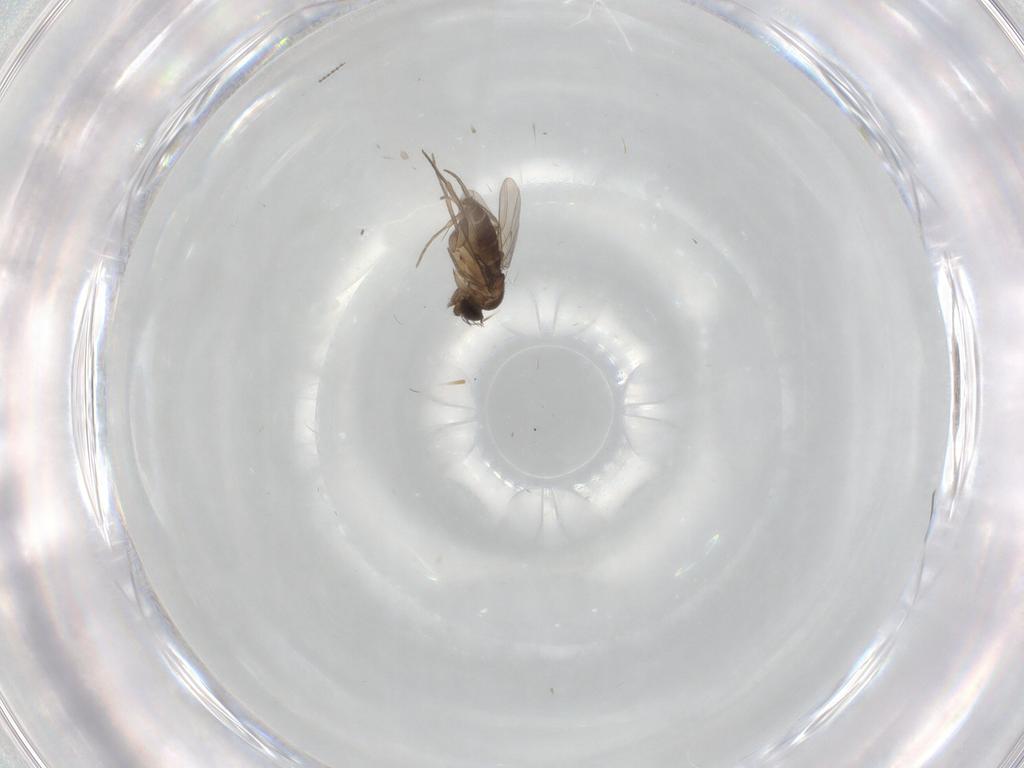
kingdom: Animalia
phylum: Arthropoda
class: Insecta
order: Diptera
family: Phoridae
